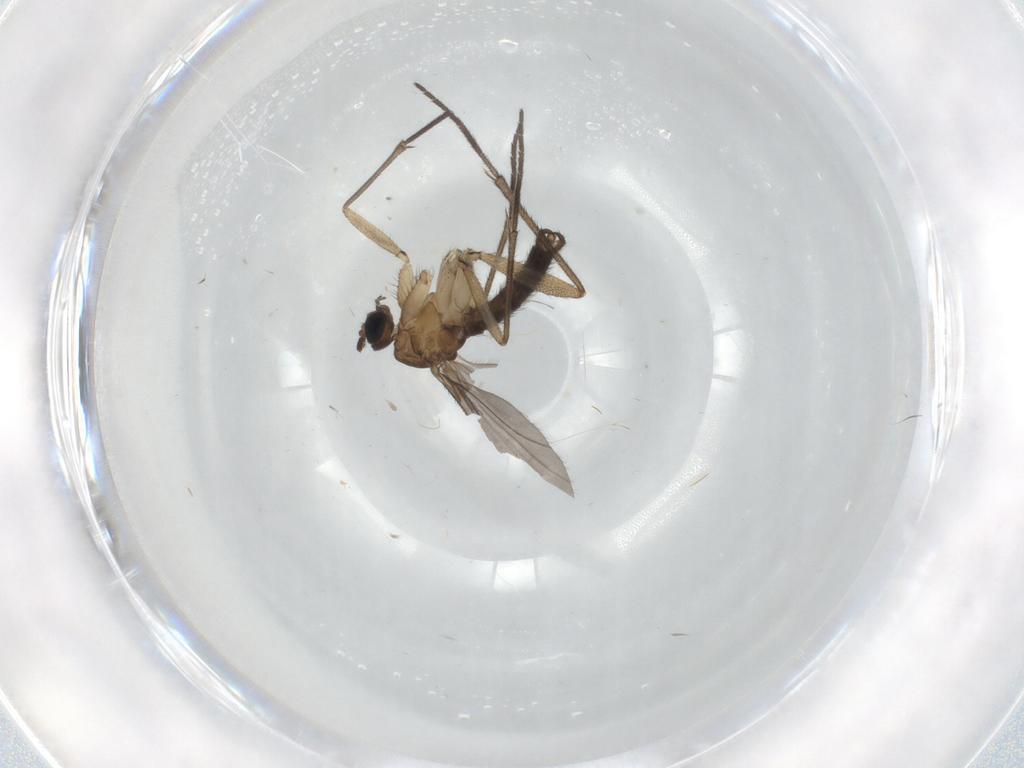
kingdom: Animalia
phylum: Arthropoda
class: Insecta
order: Diptera
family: Sciaridae
